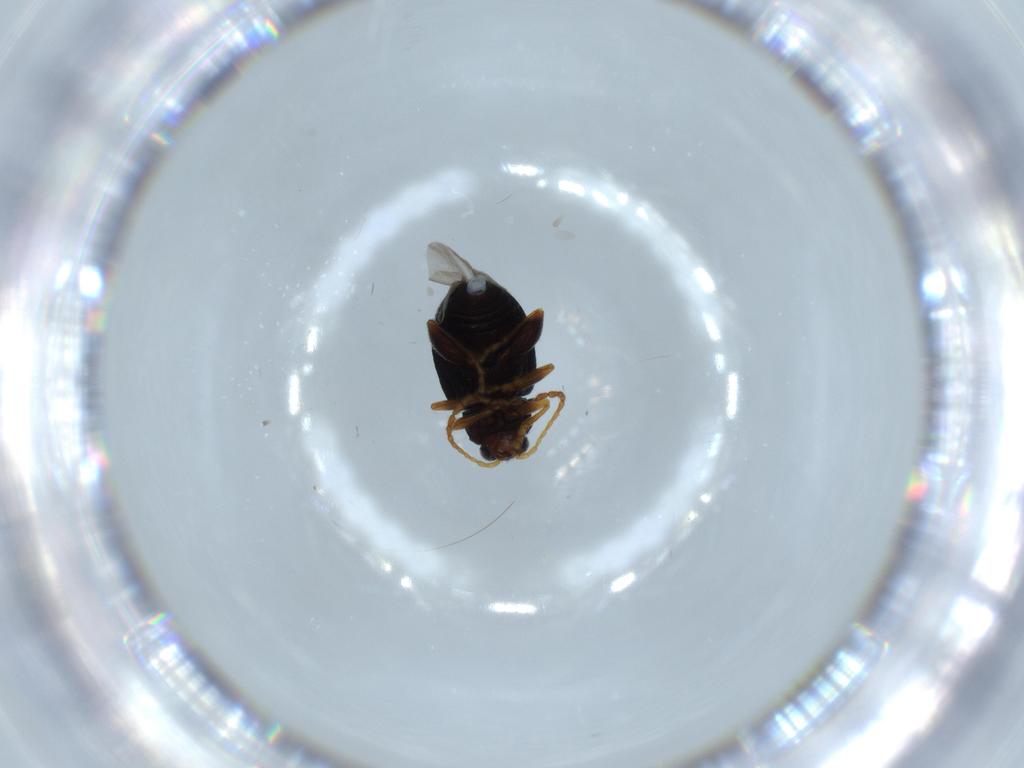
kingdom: Animalia
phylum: Arthropoda
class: Insecta
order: Coleoptera
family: Chrysomelidae
